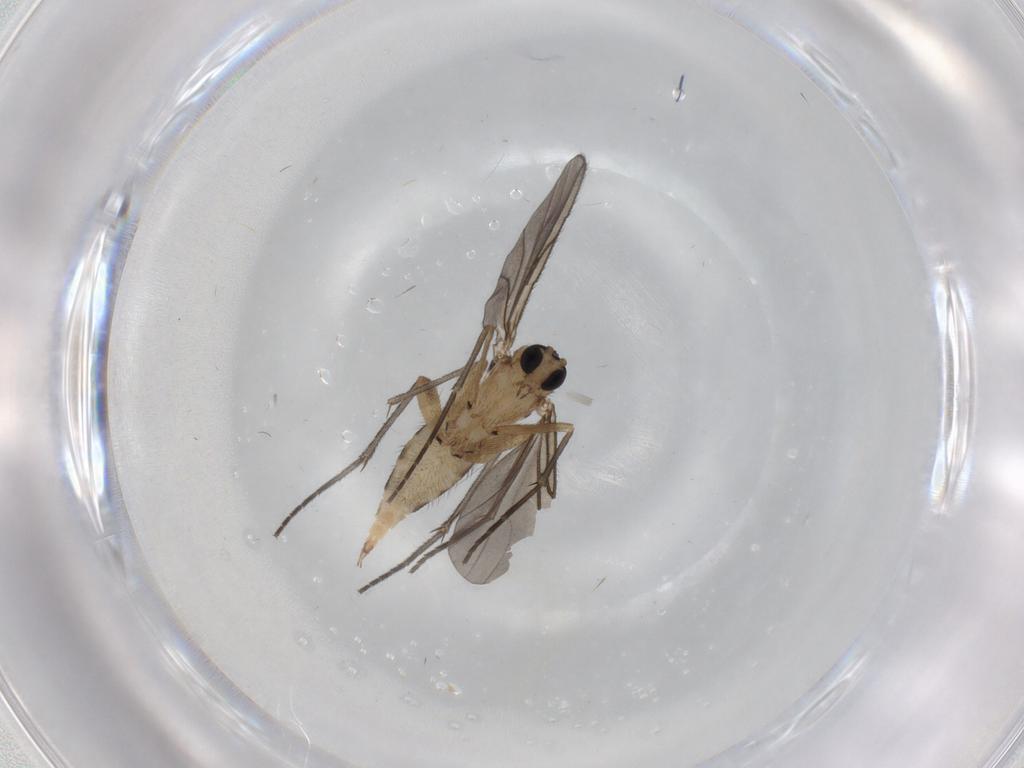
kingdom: Animalia
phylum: Arthropoda
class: Insecta
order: Diptera
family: Sciaridae
